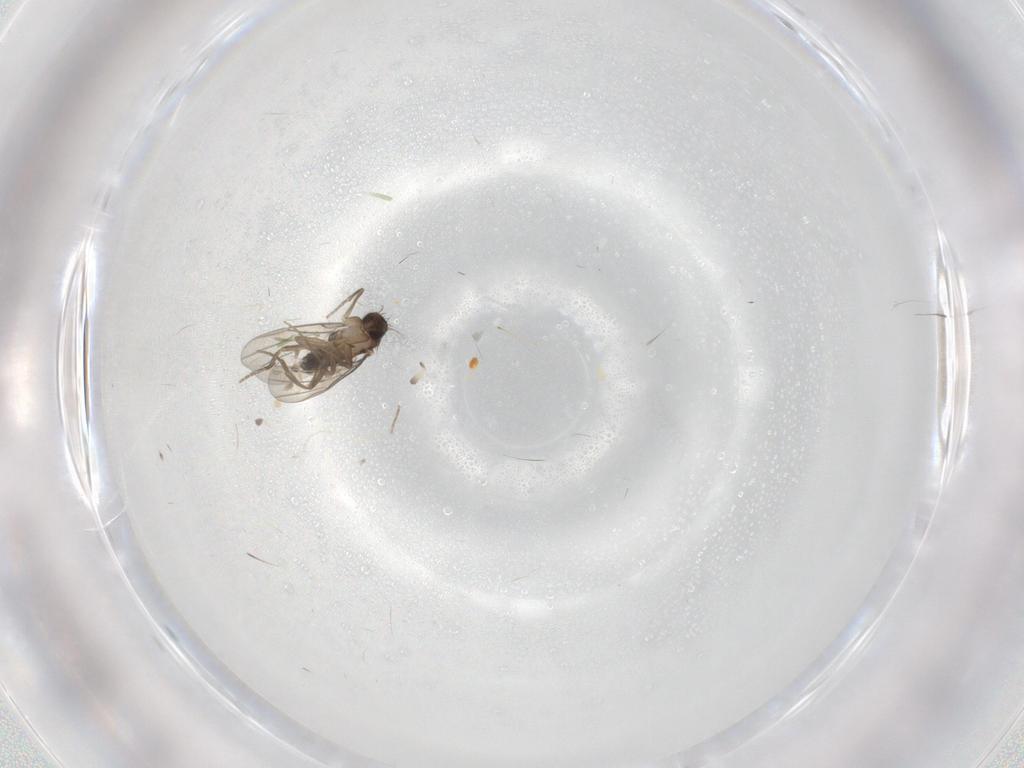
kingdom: Animalia
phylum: Arthropoda
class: Insecta
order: Diptera
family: Phoridae
